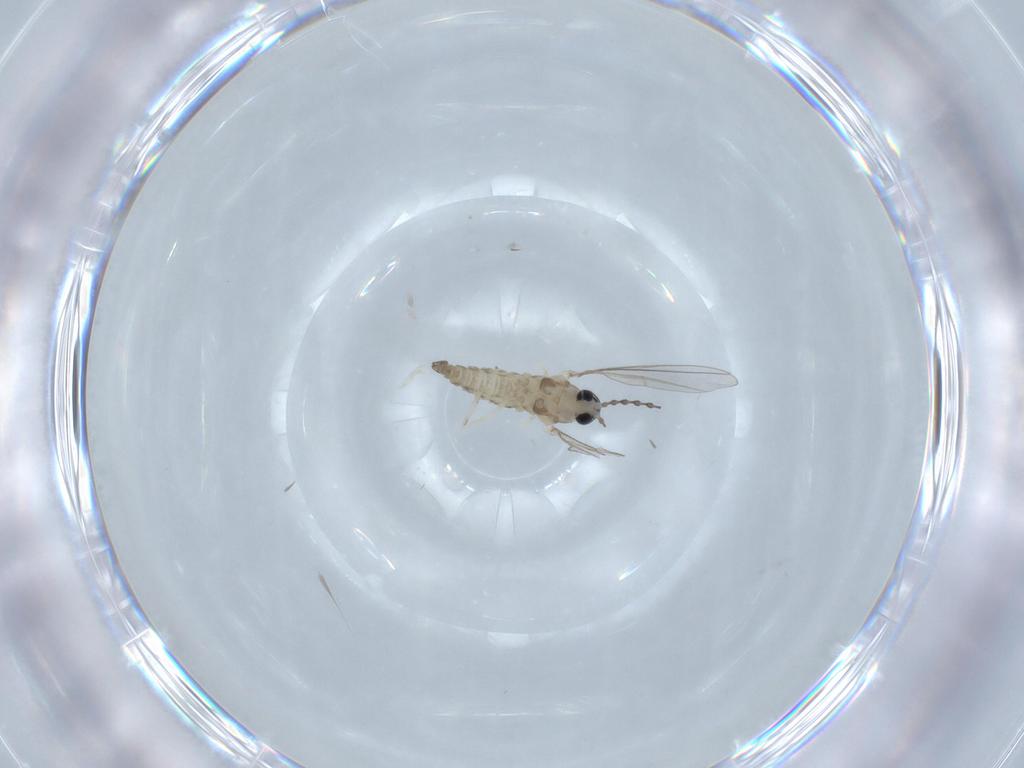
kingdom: Animalia
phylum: Arthropoda
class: Insecta
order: Diptera
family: Cecidomyiidae
